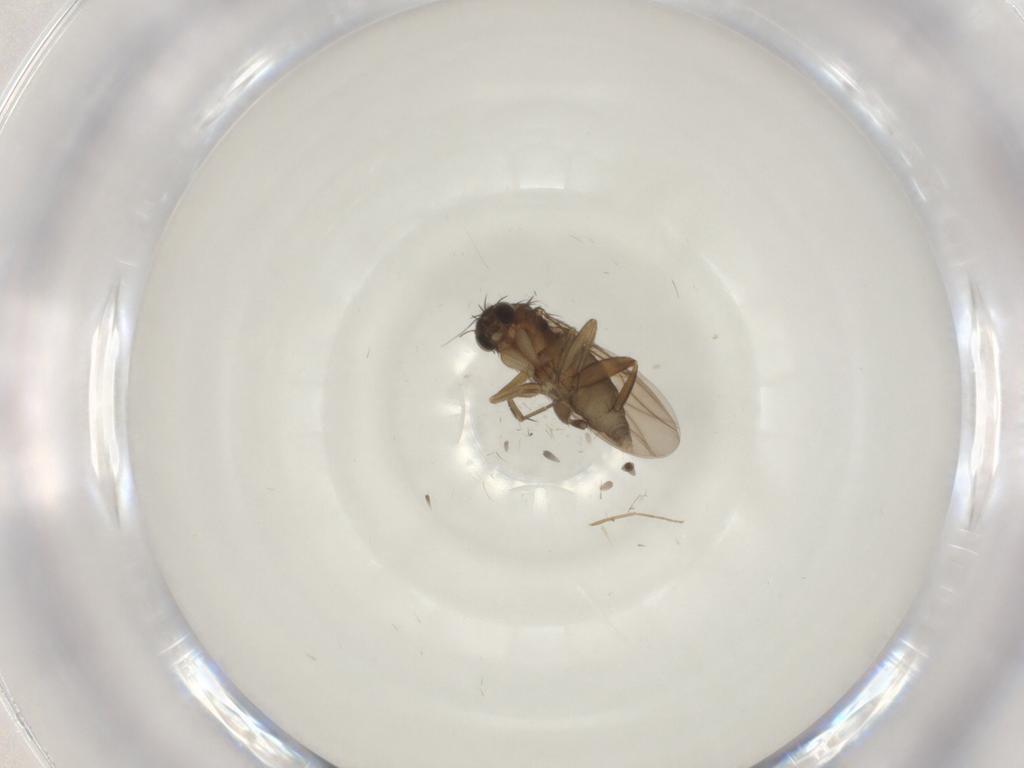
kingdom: Animalia
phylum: Arthropoda
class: Insecta
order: Diptera
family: Phoridae
